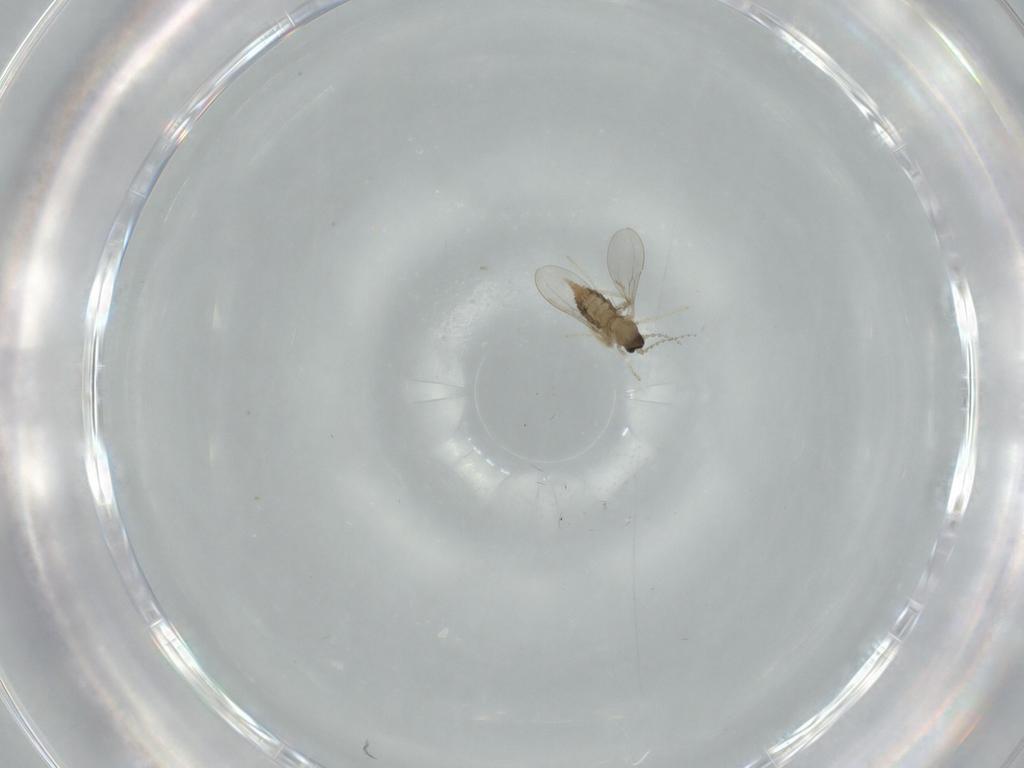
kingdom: Animalia
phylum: Arthropoda
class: Insecta
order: Diptera
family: Cecidomyiidae
